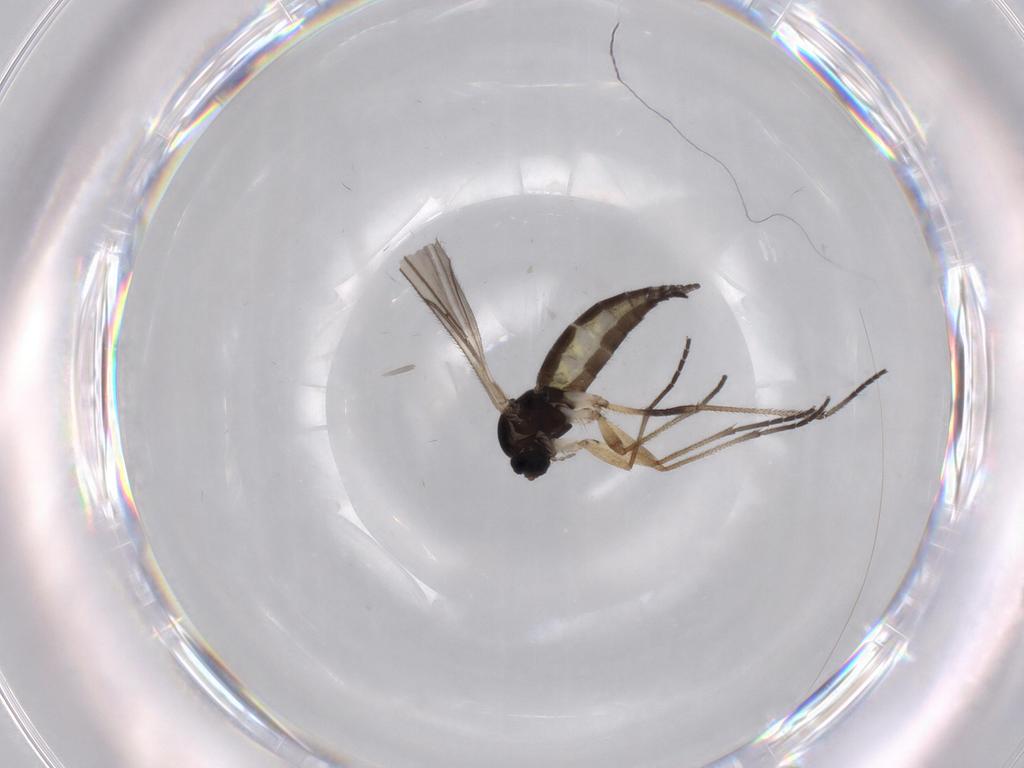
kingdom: Animalia
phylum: Arthropoda
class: Insecta
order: Diptera
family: Sciaridae
